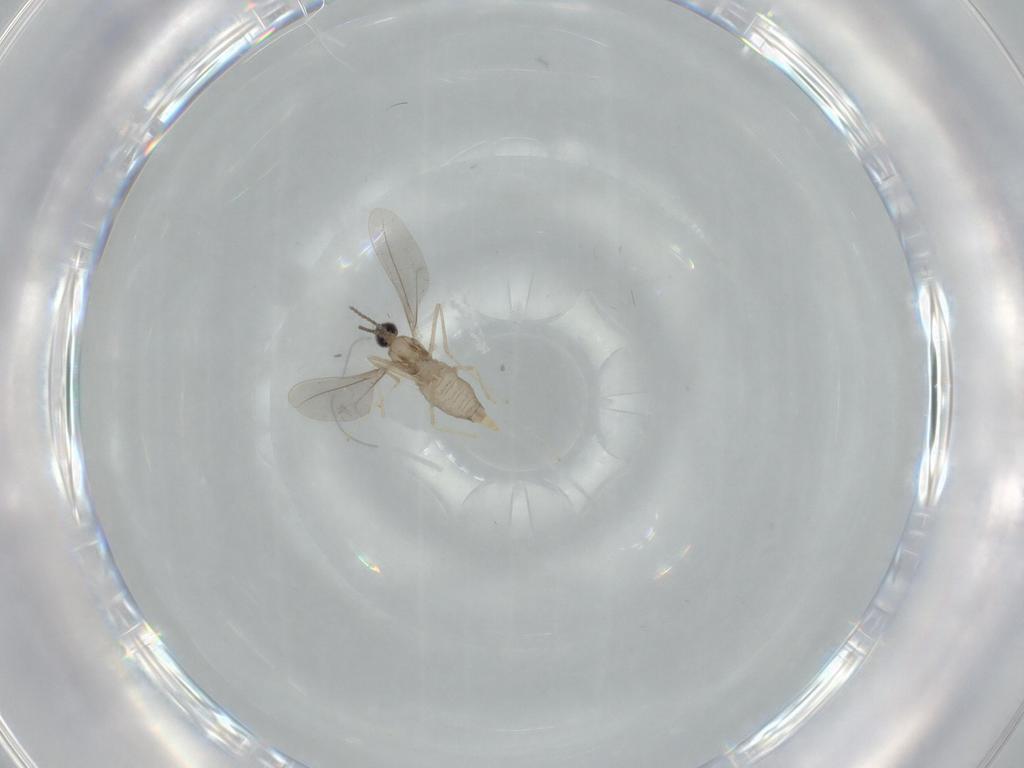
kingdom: Animalia
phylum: Arthropoda
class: Insecta
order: Diptera
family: Cecidomyiidae
